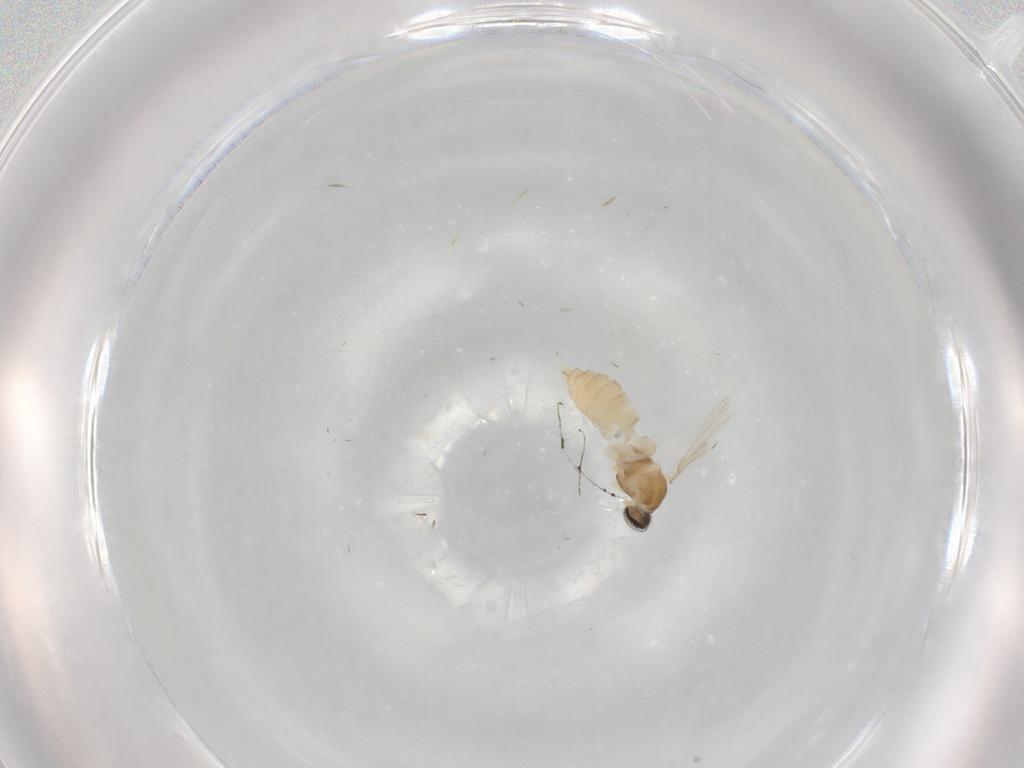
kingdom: Animalia
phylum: Arthropoda
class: Insecta
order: Diptera
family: Cecidomyiidae
